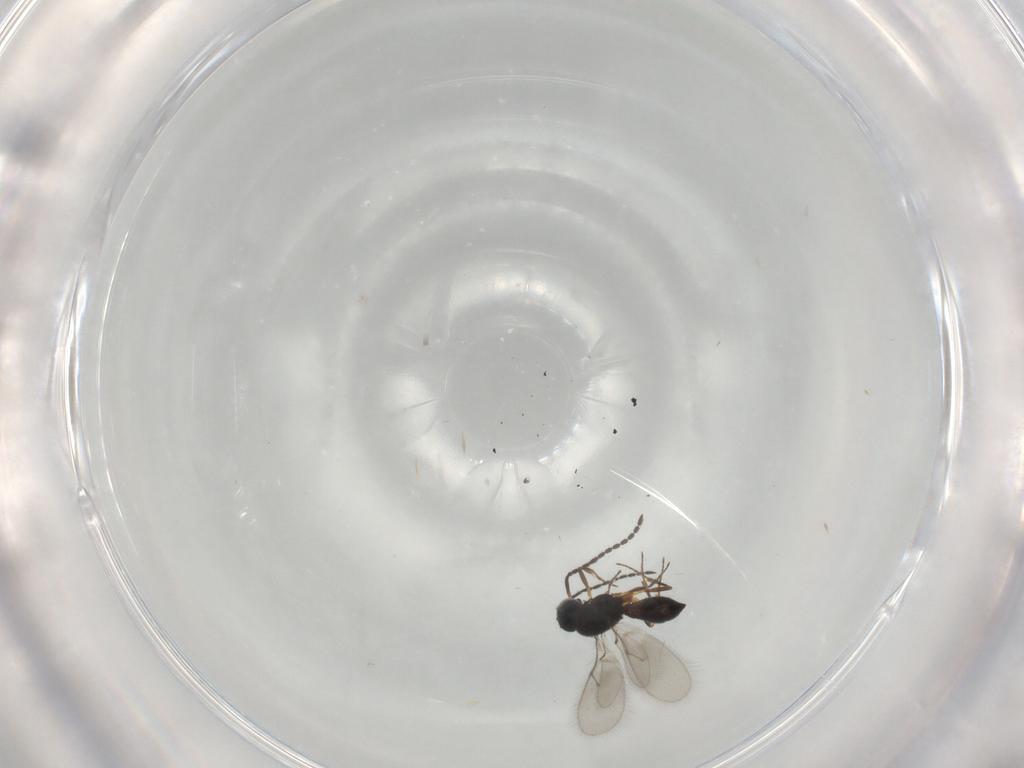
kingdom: Animalia
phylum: Arthropoda
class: Insecta
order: Hymenoptera
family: Scelionidae
